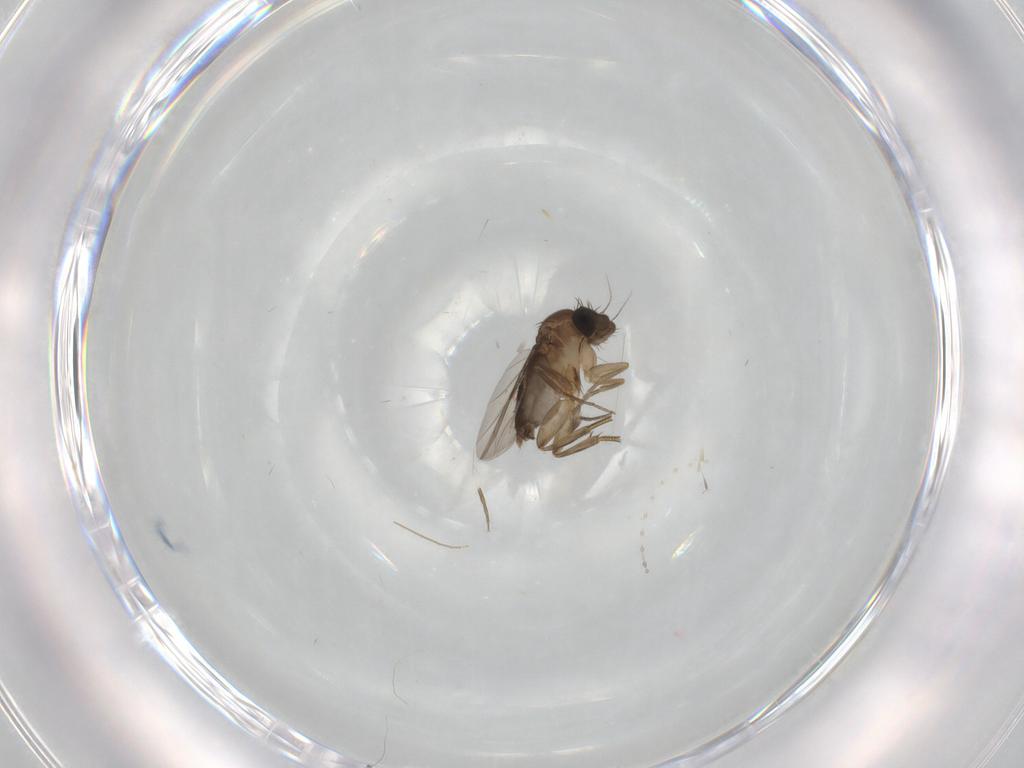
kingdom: Animalia
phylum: Arthropoda
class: Insecta
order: Diptera
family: Phoridae
